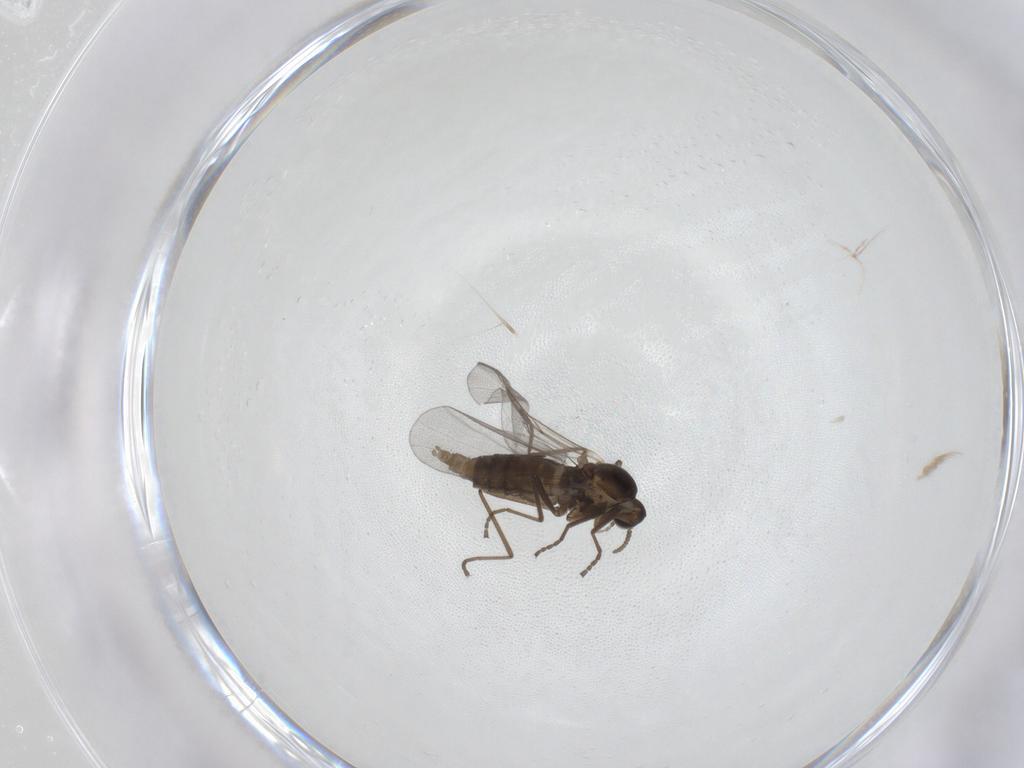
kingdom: Animalia
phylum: Arthropoda
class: Insecta
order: Diptera
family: Cecidomyiidae
